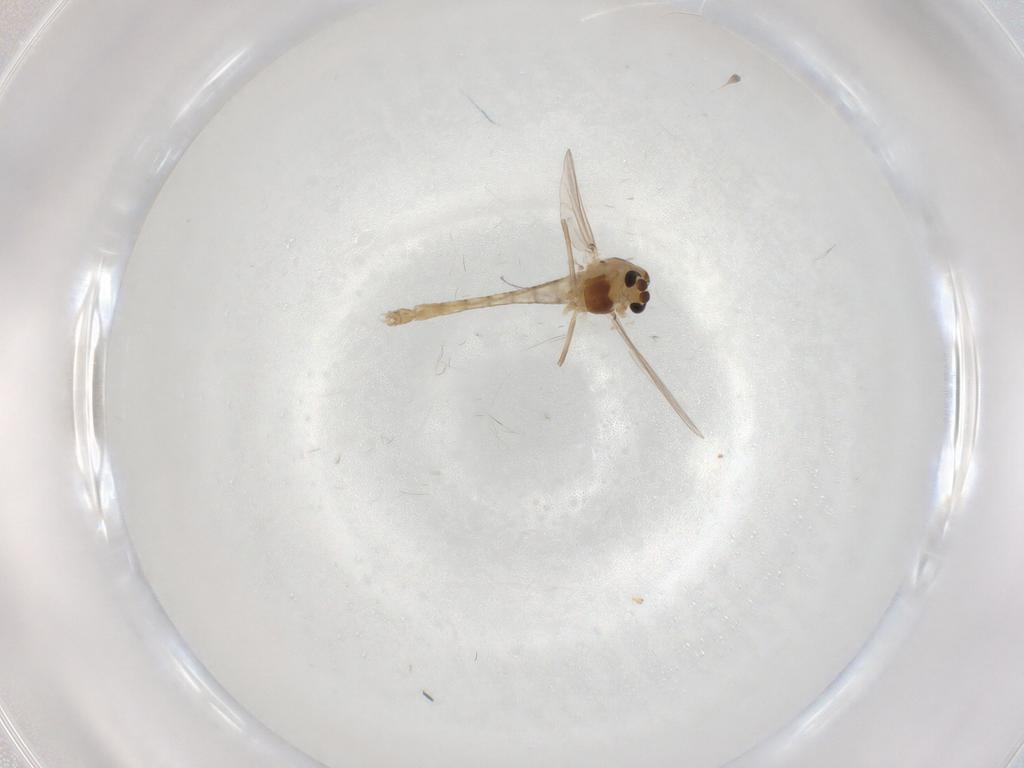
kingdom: Animalia
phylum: Arthropoda
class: Insecta
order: Diptera
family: Chironomidae
